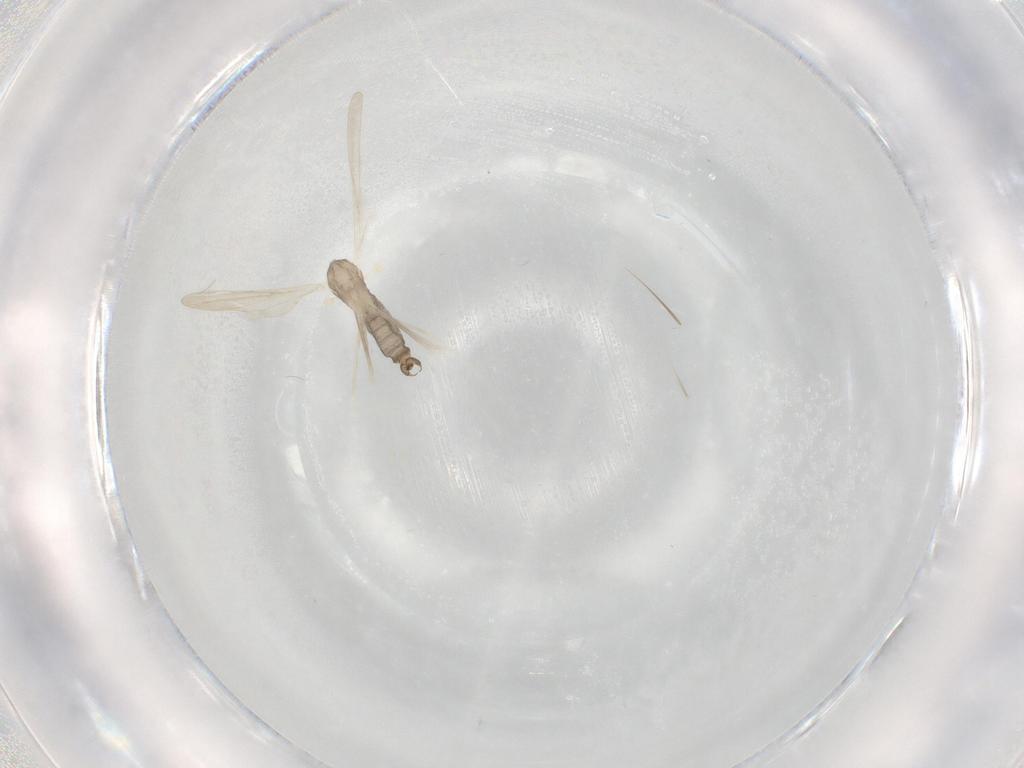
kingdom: Animalia
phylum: Arthropoda
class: Insecta
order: Diptera
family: Cecidomyiidae
